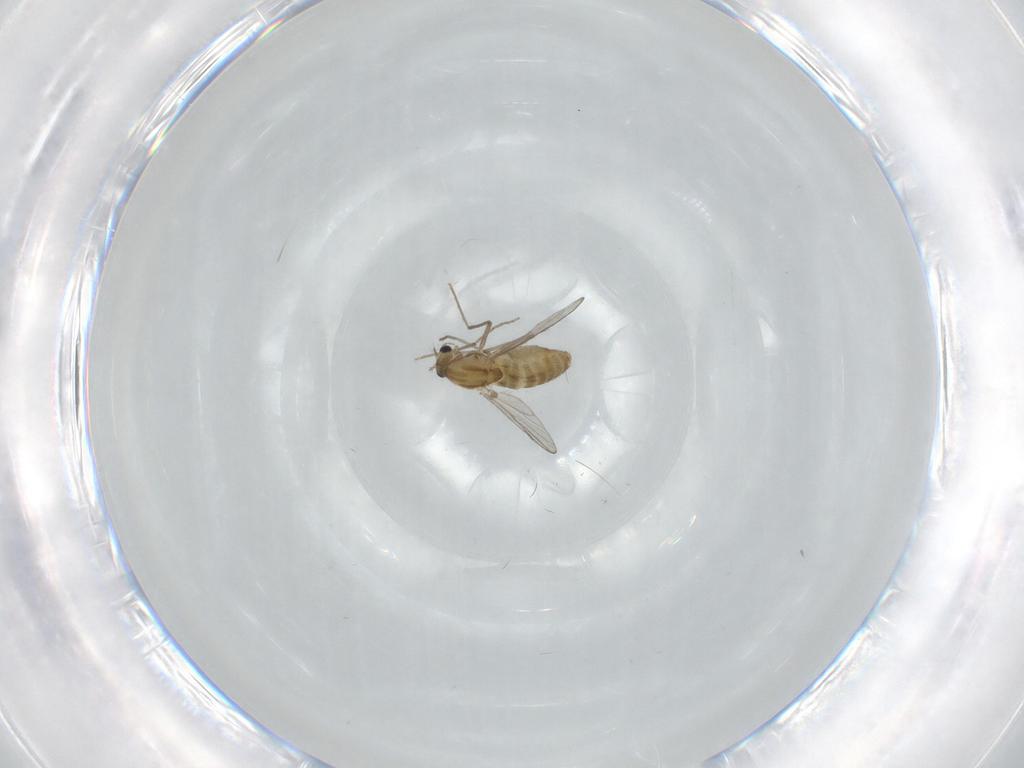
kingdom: Animalia
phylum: Arthropoda
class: Insecta
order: Diptera
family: Chironomidae
